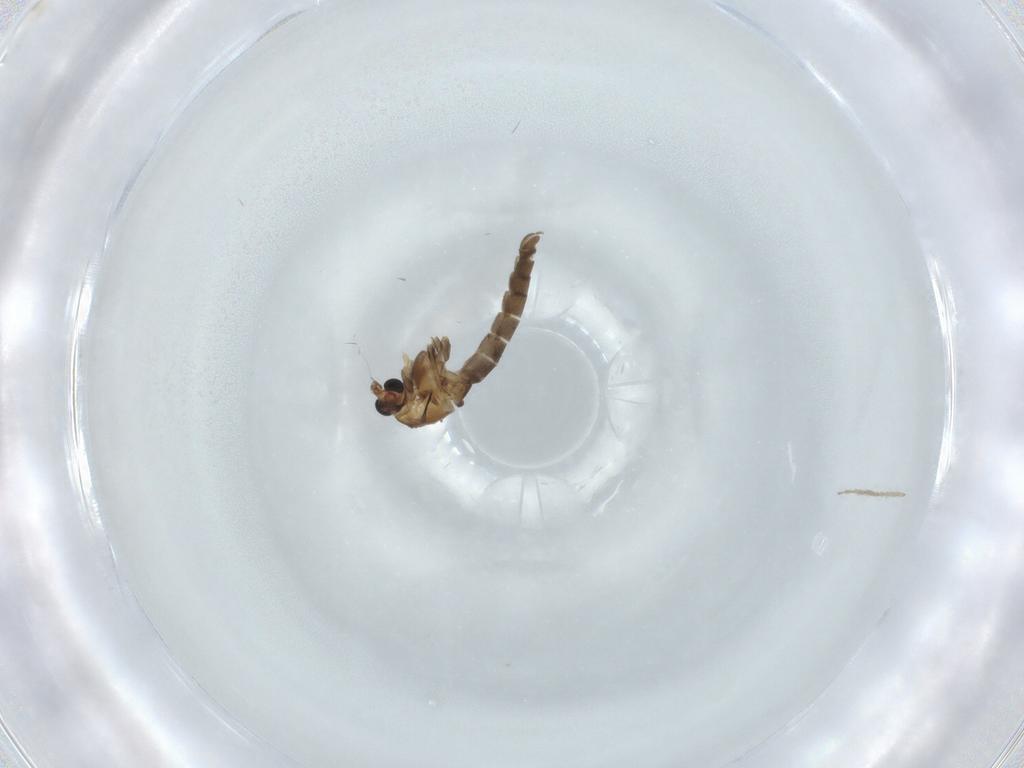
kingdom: Animalia
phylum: Arthropoda
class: Insecta
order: Diptera
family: Chironomidae
